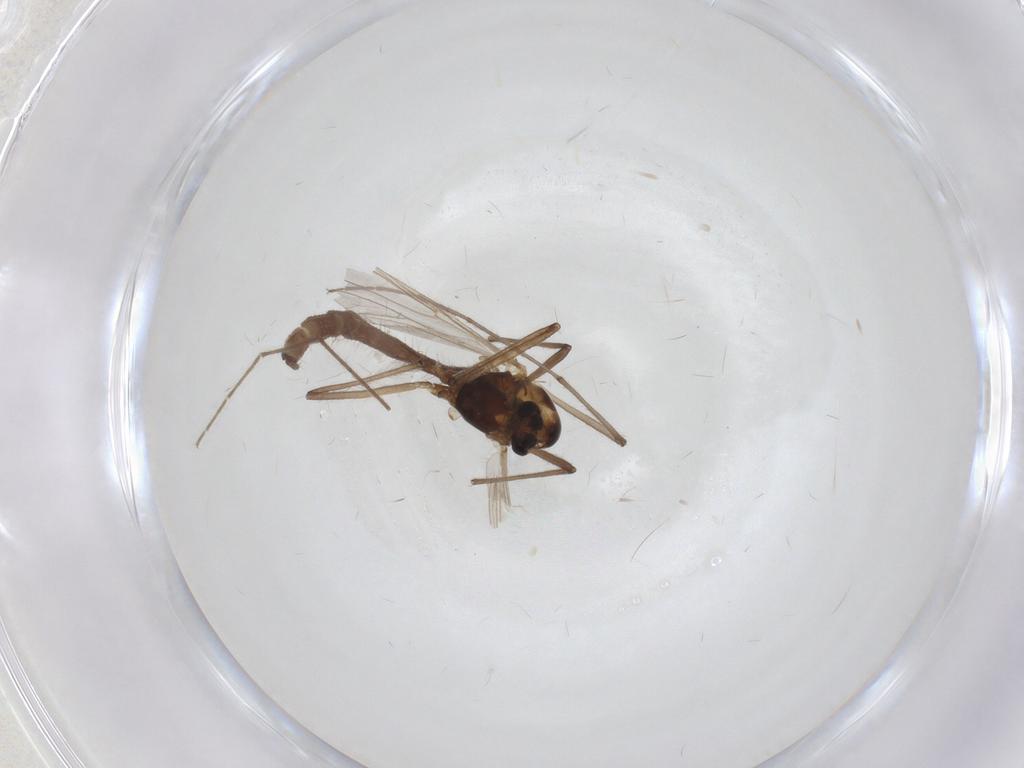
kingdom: Animalia
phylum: Arthropoda
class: Insecta
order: Diptera
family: Chironomidae
